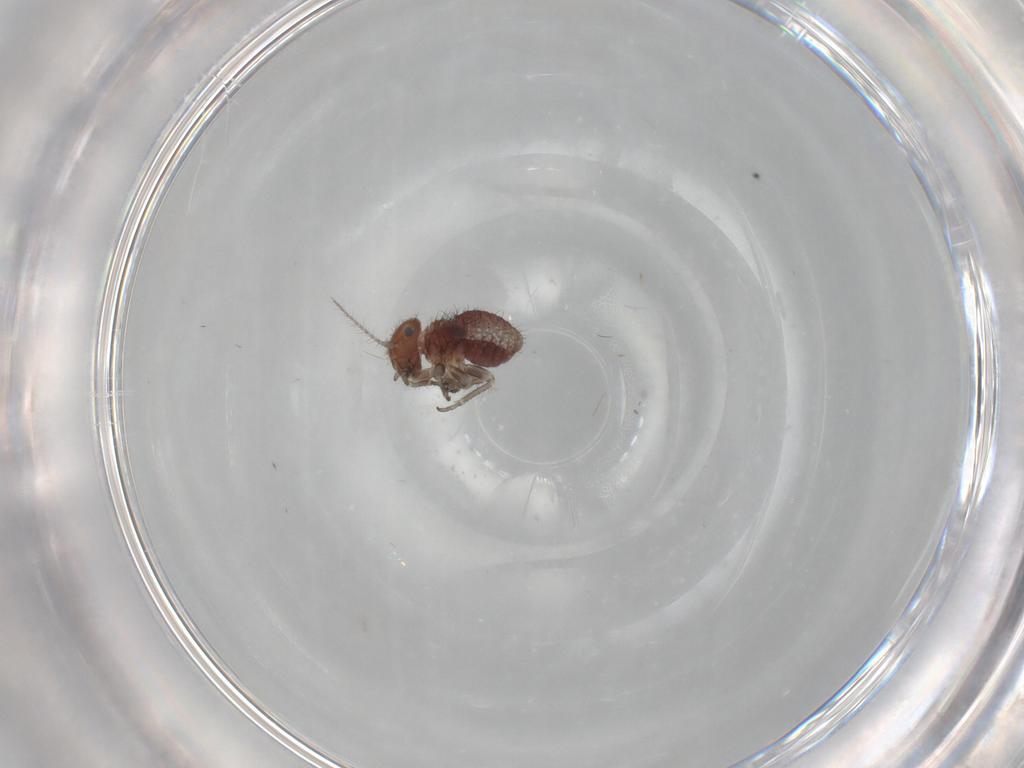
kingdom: Animalia
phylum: Arthropoda
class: Insecta
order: Psocodea
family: Pseudocaeciliidae
